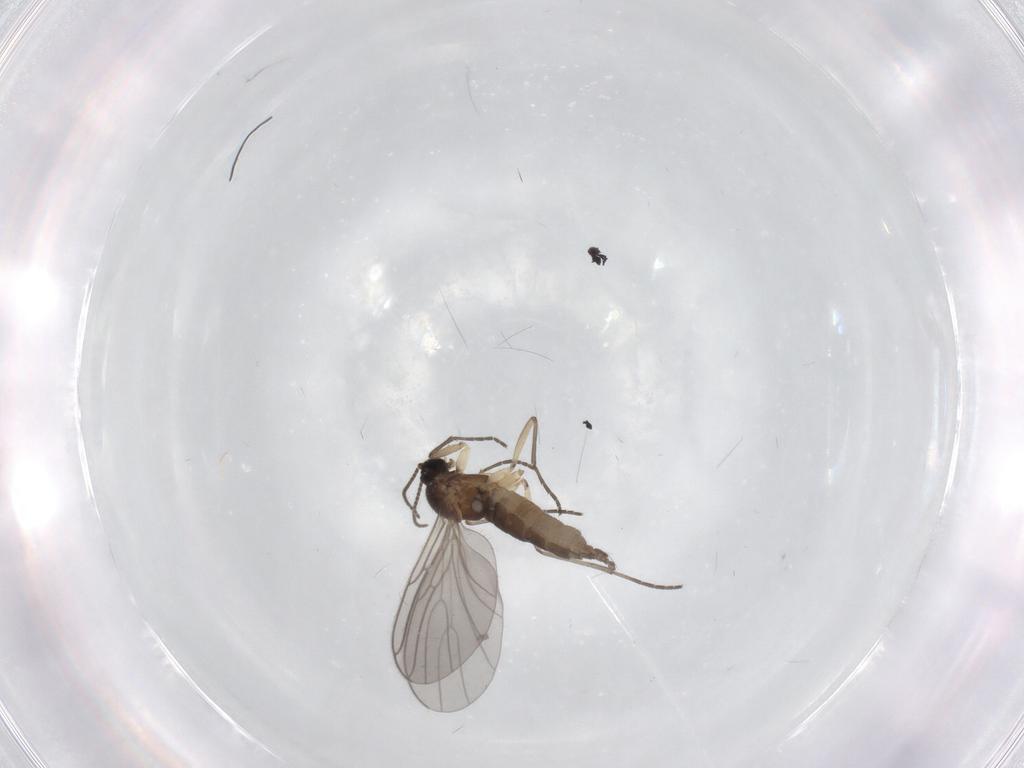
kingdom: Animalia
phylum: Arthropoda
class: Insecta
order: Diptera
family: Sciaridae
